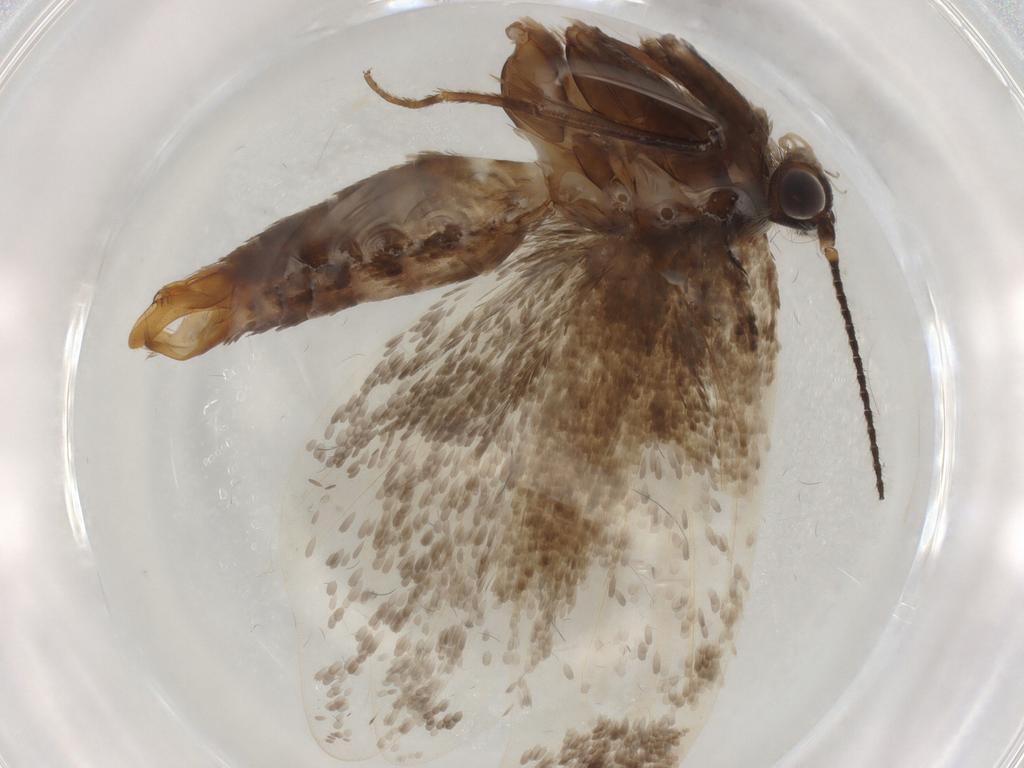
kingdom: Animalia
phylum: Arthropoda
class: Insecta
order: Lepidoptera
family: Eriocottidae
